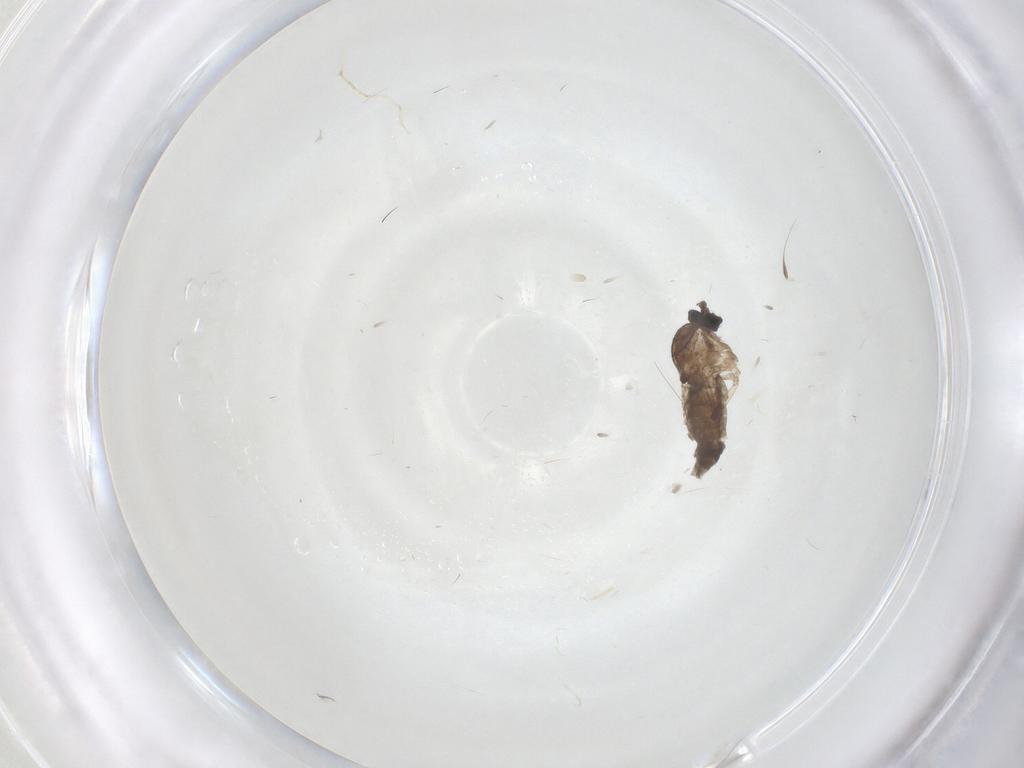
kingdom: Animalia
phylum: Arthropoda
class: Insecta
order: Diptera
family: Ceratopogonidae
